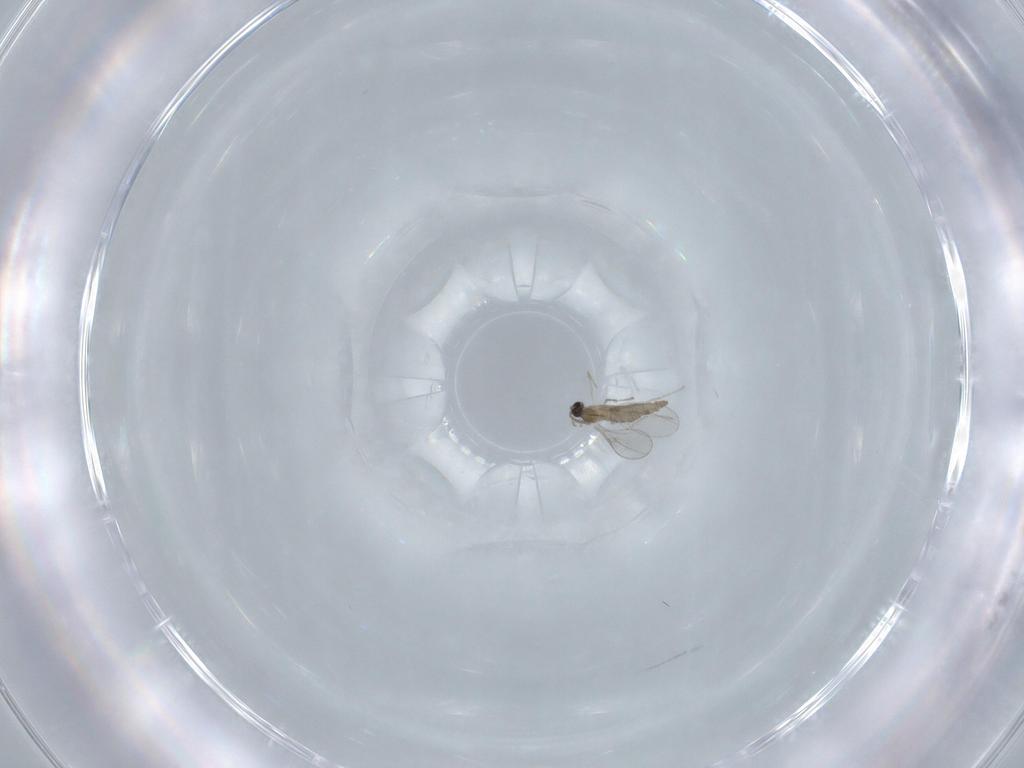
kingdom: Animalia
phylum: Arthropoda
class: Insecta
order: Diptera
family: Cecidomyiidae
